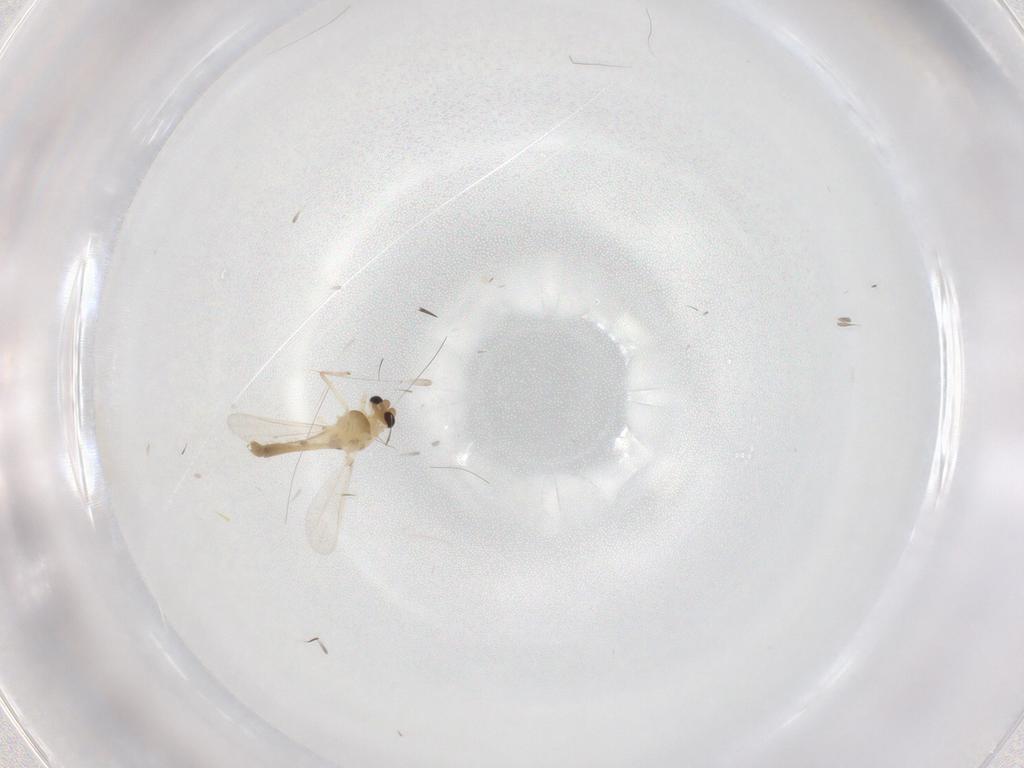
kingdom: Animalia
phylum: Arthropoda
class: Insecta
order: Diptera
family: Chironomidae
